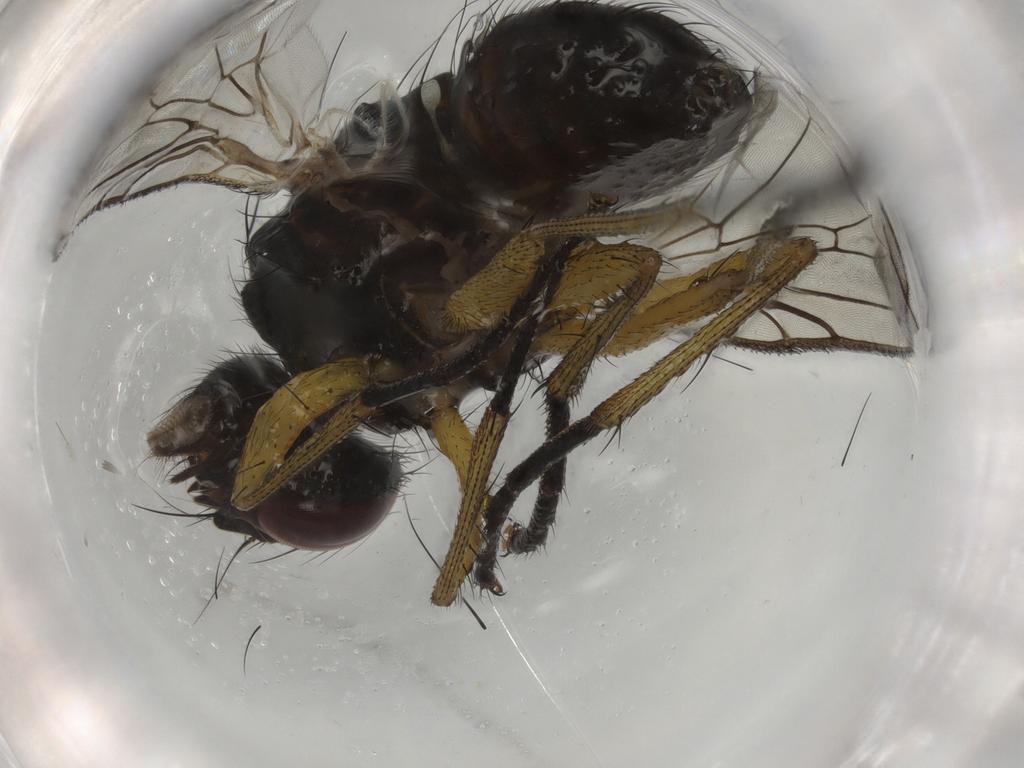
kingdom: Animalia
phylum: Arthropoda
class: Insecta
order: Diptera
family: Muscidae
